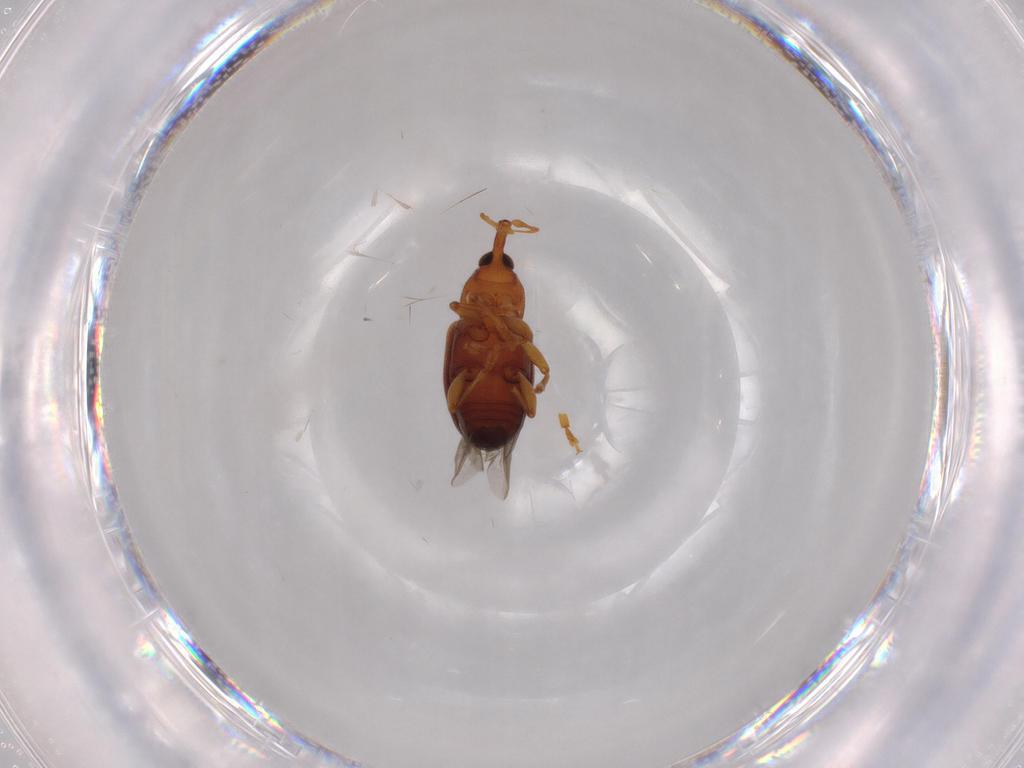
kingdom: Animalia
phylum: Arthropoda
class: Insecta
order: Coleoptera
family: Curculionidae
